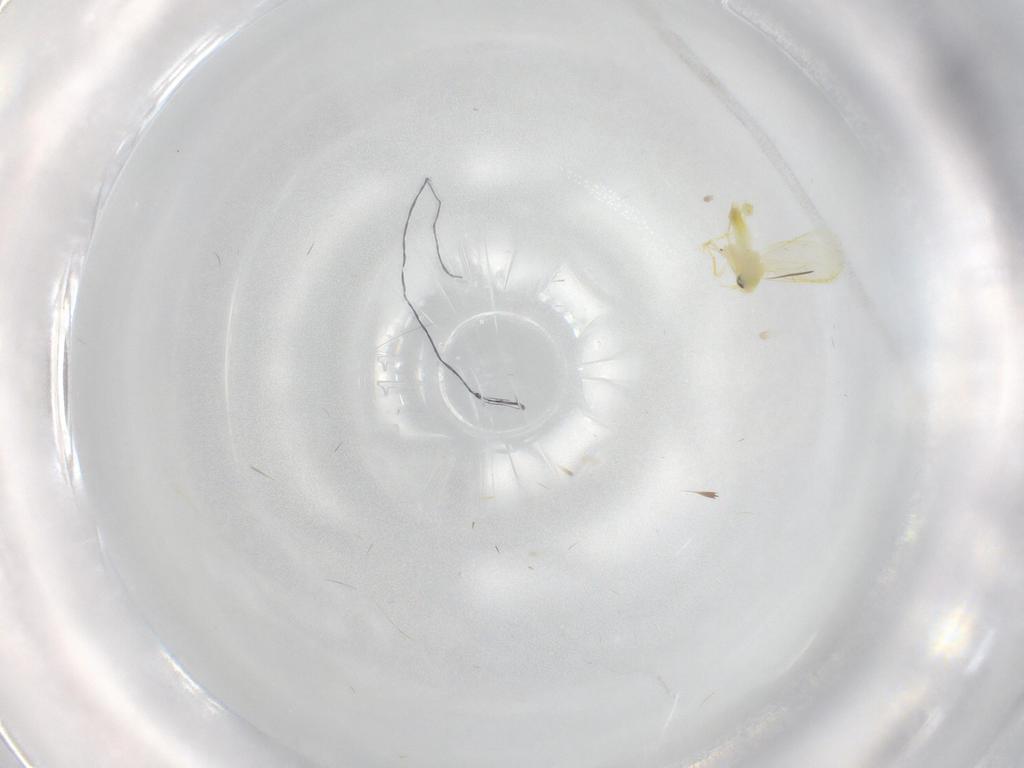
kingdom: Animalia
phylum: Arthropoda
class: Insecta
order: Hemiptera
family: Aleyrodidae
